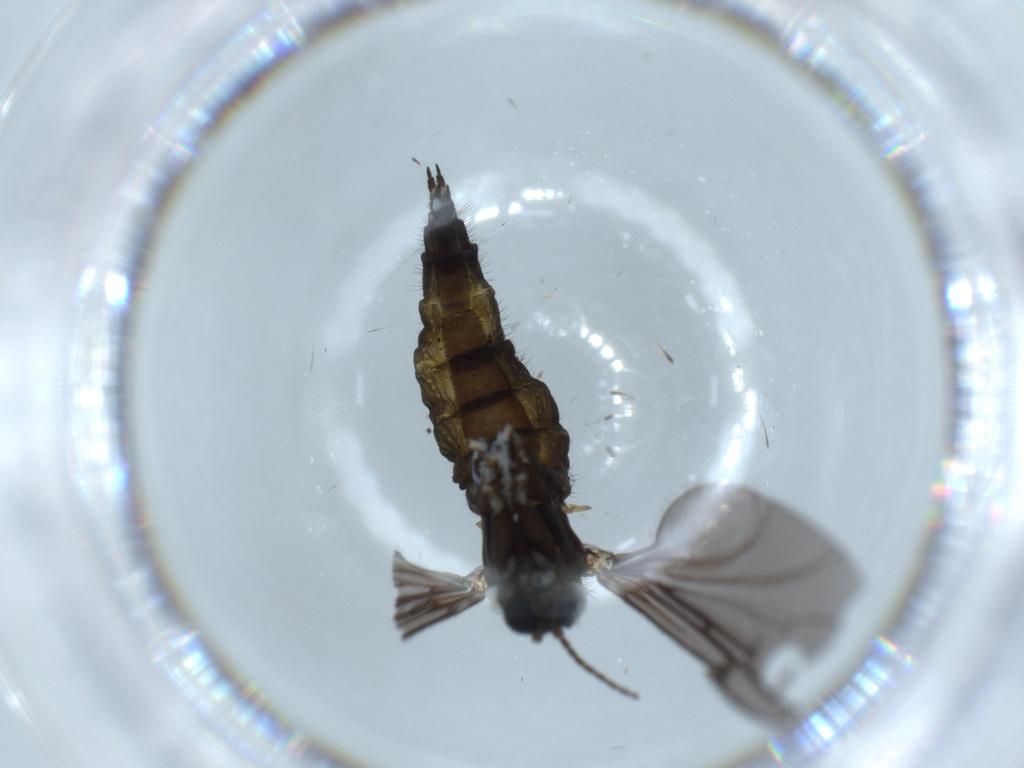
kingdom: Animalia
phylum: Arthropoda
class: Insecta
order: Diptera
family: Sciaridae
